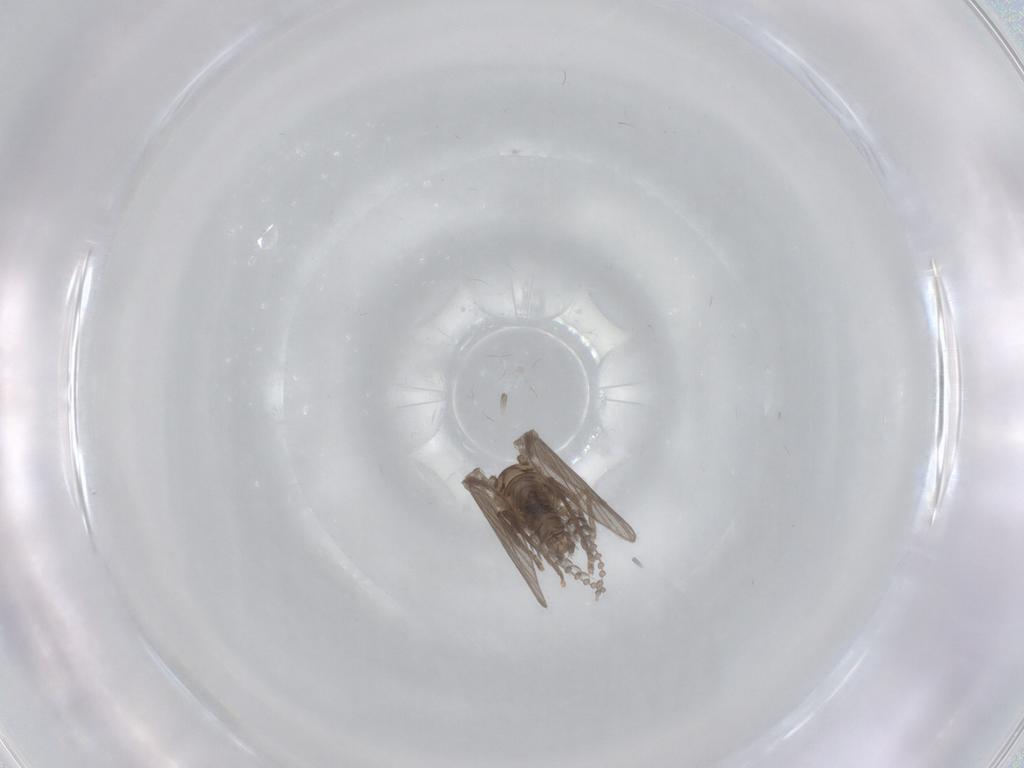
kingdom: Animalia
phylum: Arthropoda
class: Insecta
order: Diptera
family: Psychodidae
